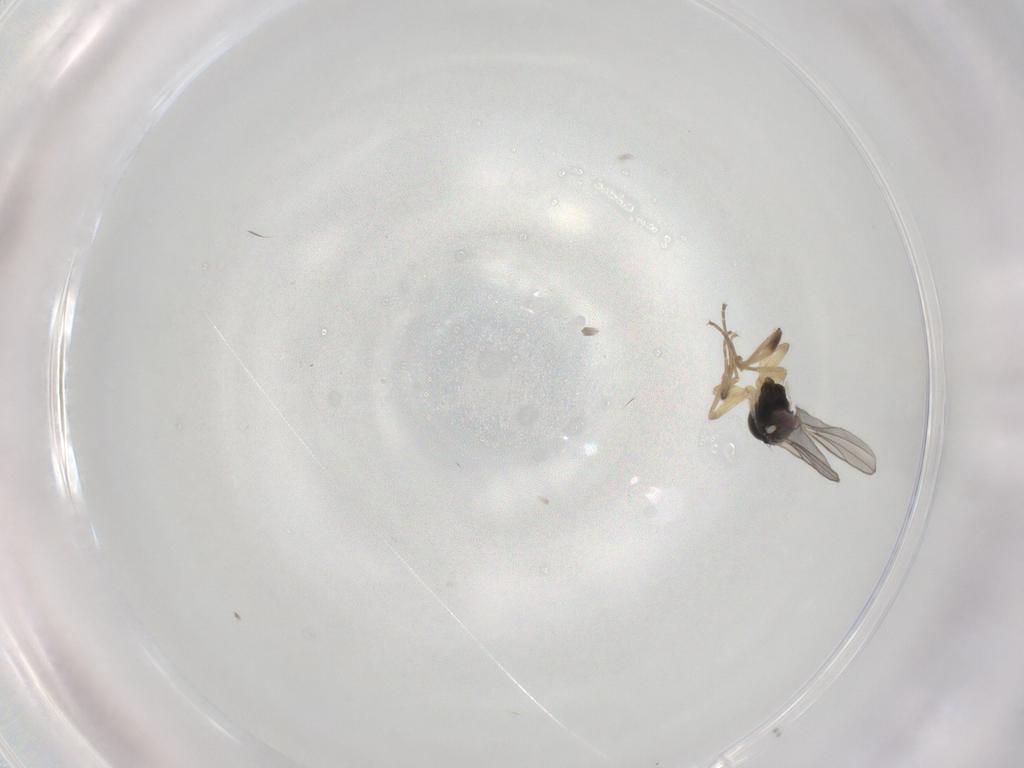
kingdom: Animalia
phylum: Arthropoda
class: Insecta
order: Diptera
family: Hybotidae
